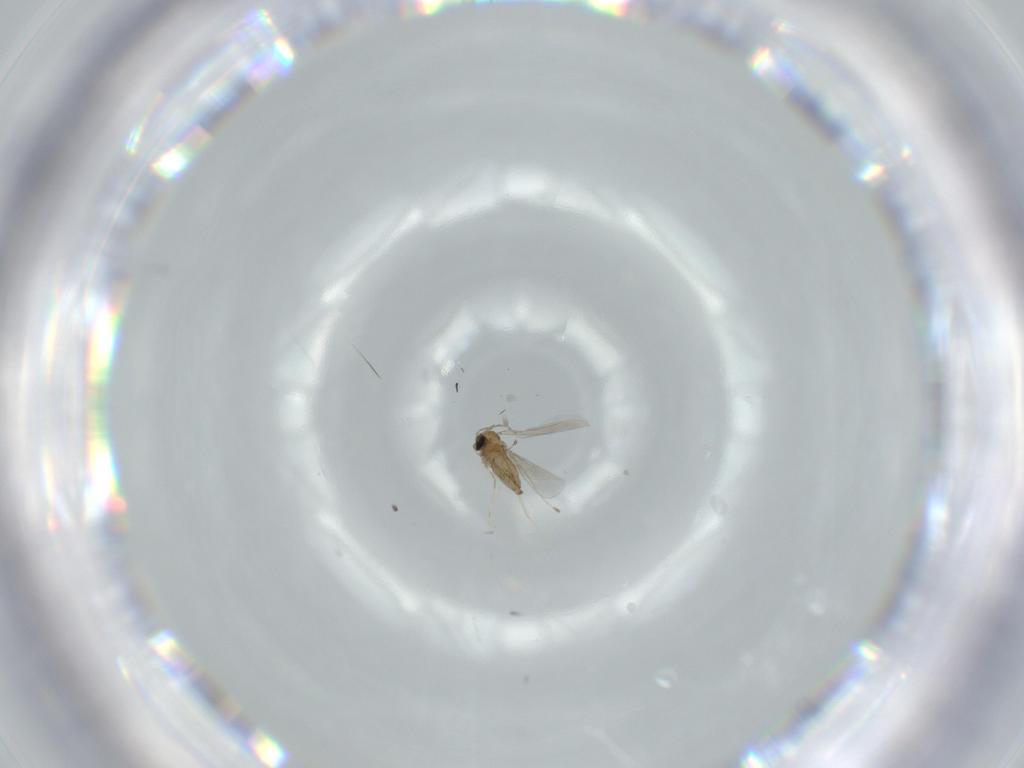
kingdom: Animalia
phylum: Arthropoda
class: Insecta
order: Diptera
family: Cecidomyiidae
